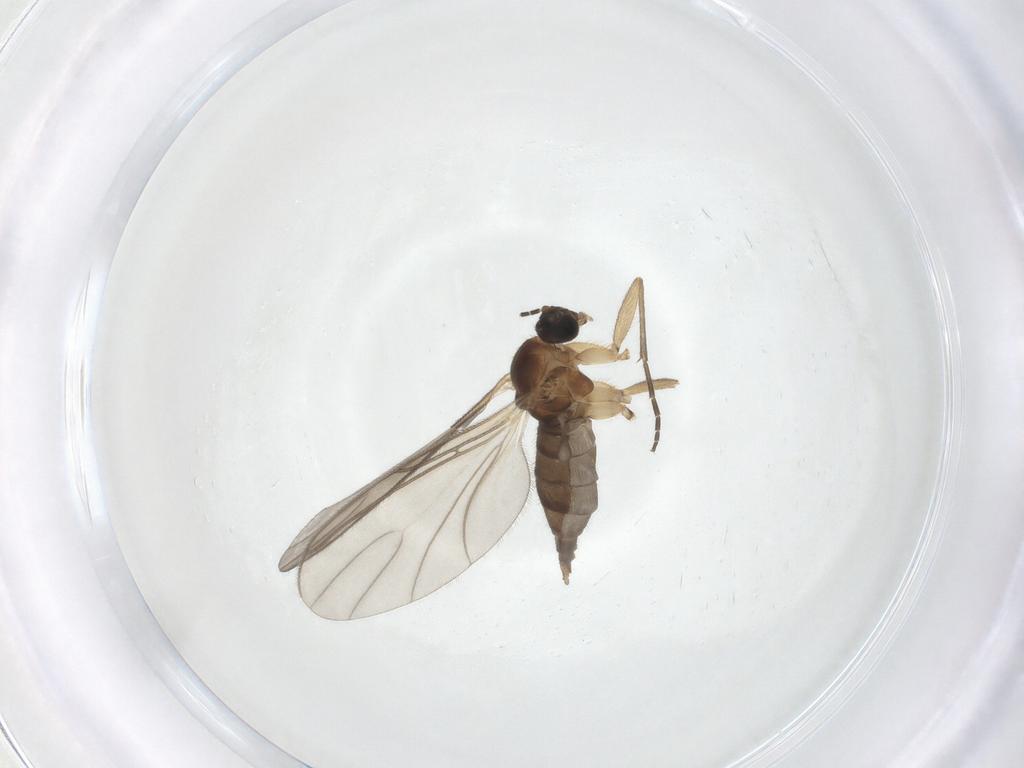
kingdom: Animalia
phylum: Arthropoda
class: Insecta
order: Diptera
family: Sciaridae
